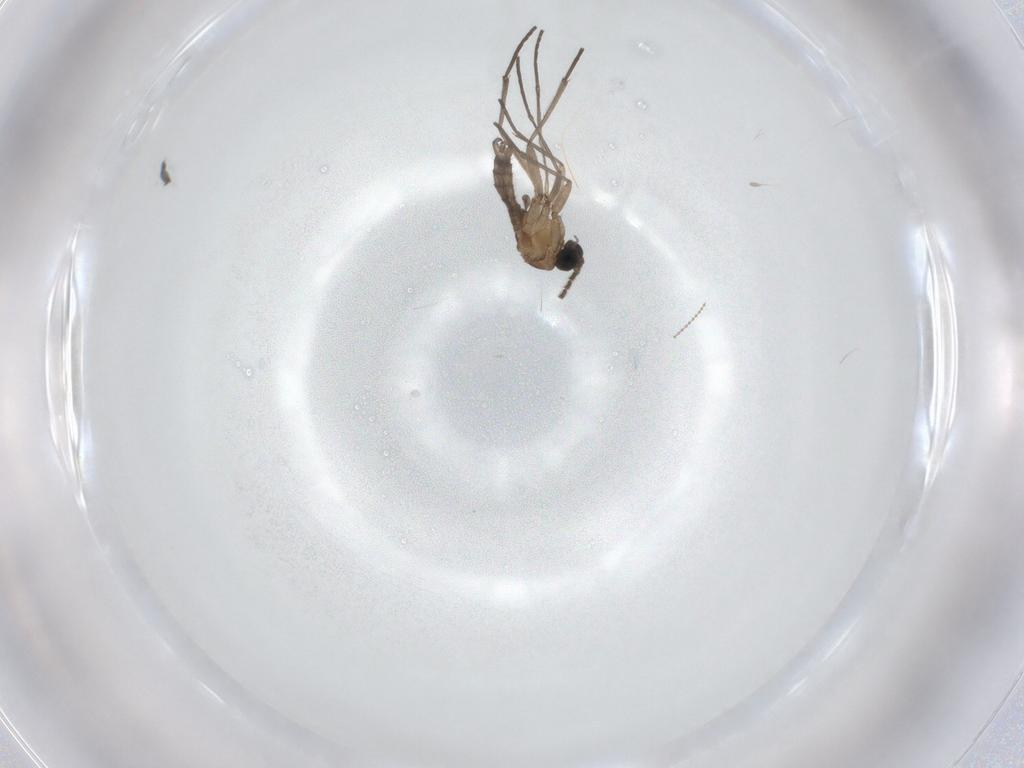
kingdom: Animalia
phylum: Arthropoda
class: Insecta
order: Diptera
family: Sciaridae
